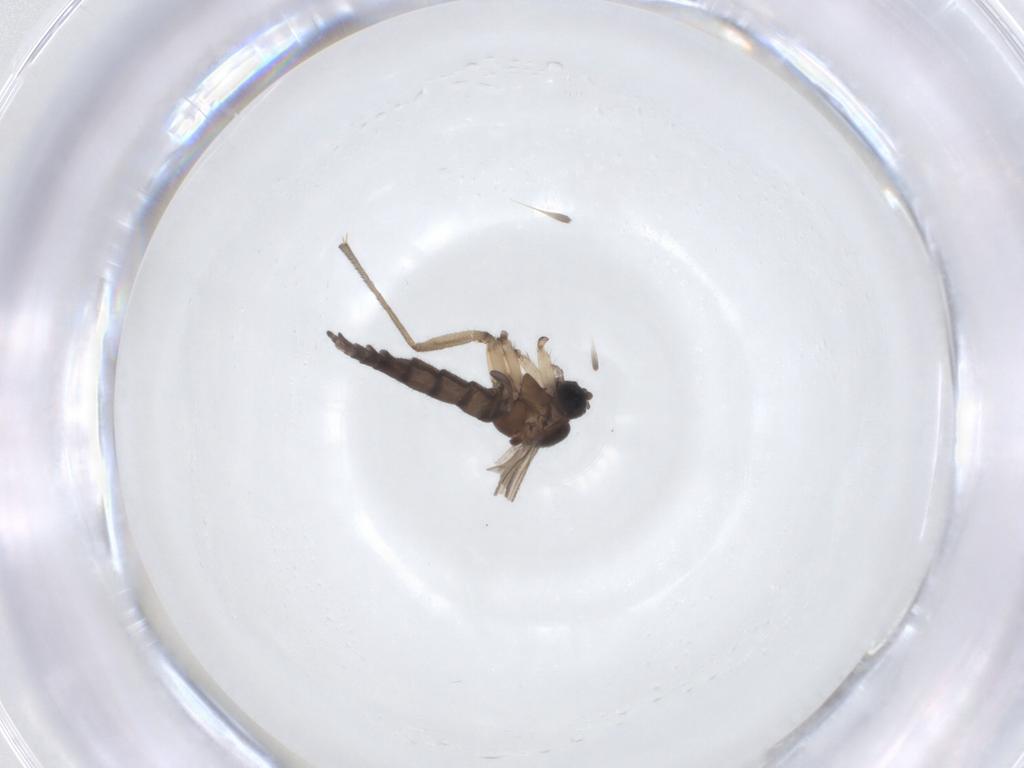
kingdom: Animalia
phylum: Arthropoda
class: Insecta
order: Diptera
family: Sciaridae
